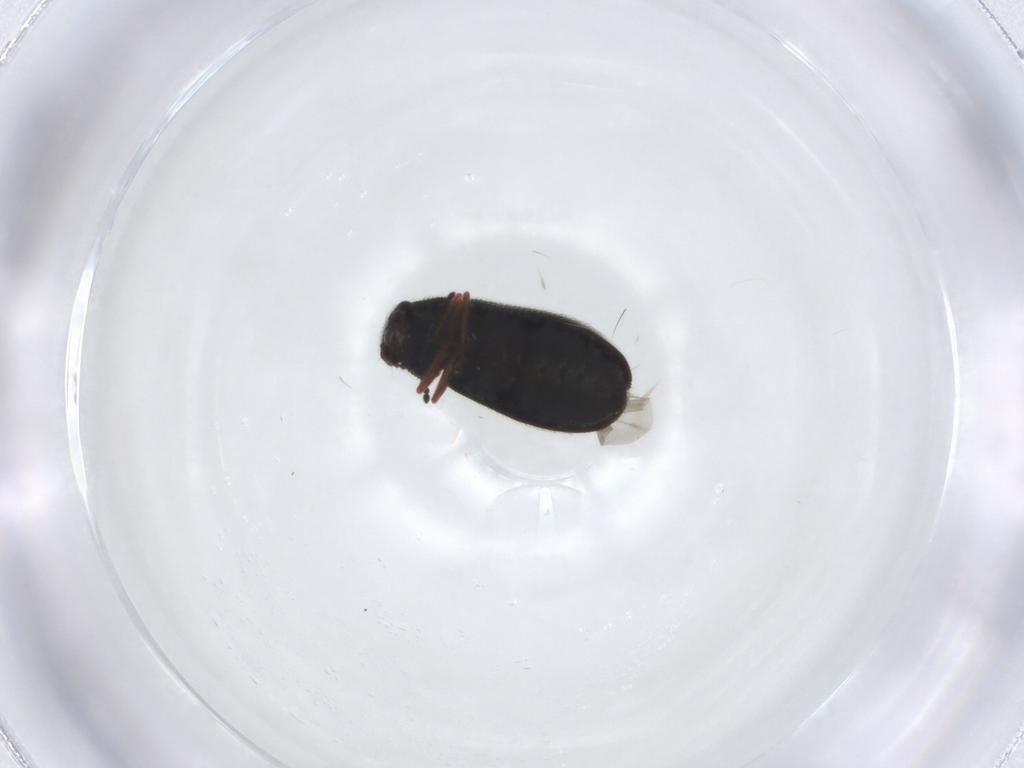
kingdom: Animalia
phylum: Arthropoda
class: Insecta
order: Coleoptera
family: Melyridae
